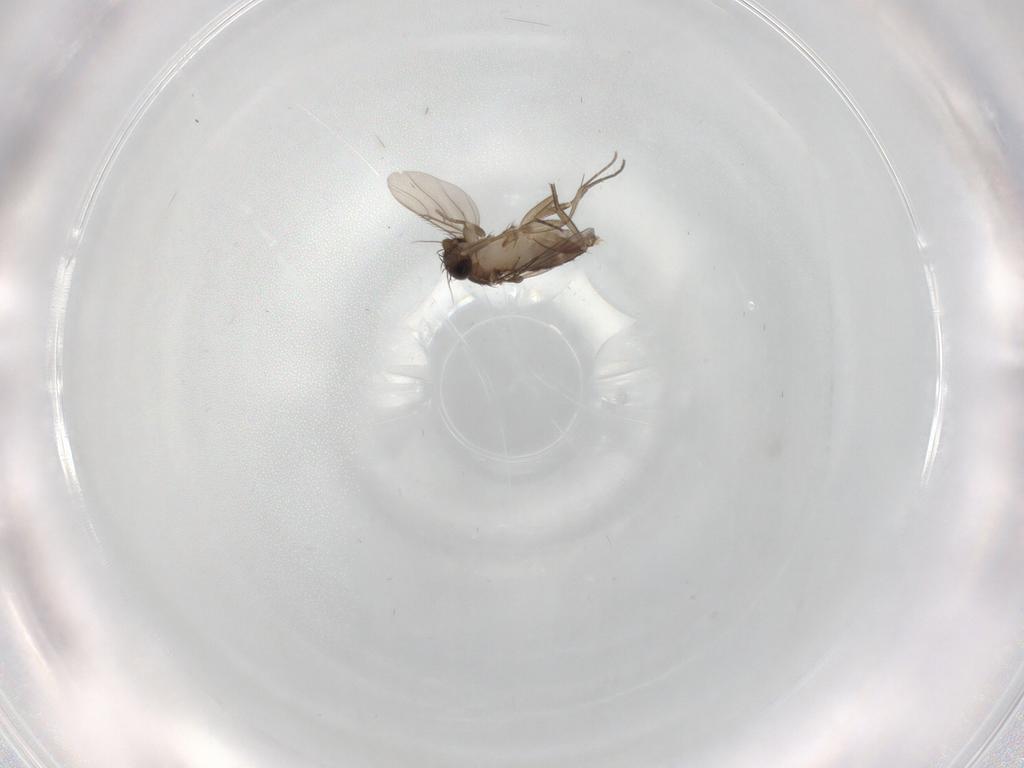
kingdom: Animalia
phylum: Arthropoda
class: Insecta
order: Diptera
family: Phoridae
